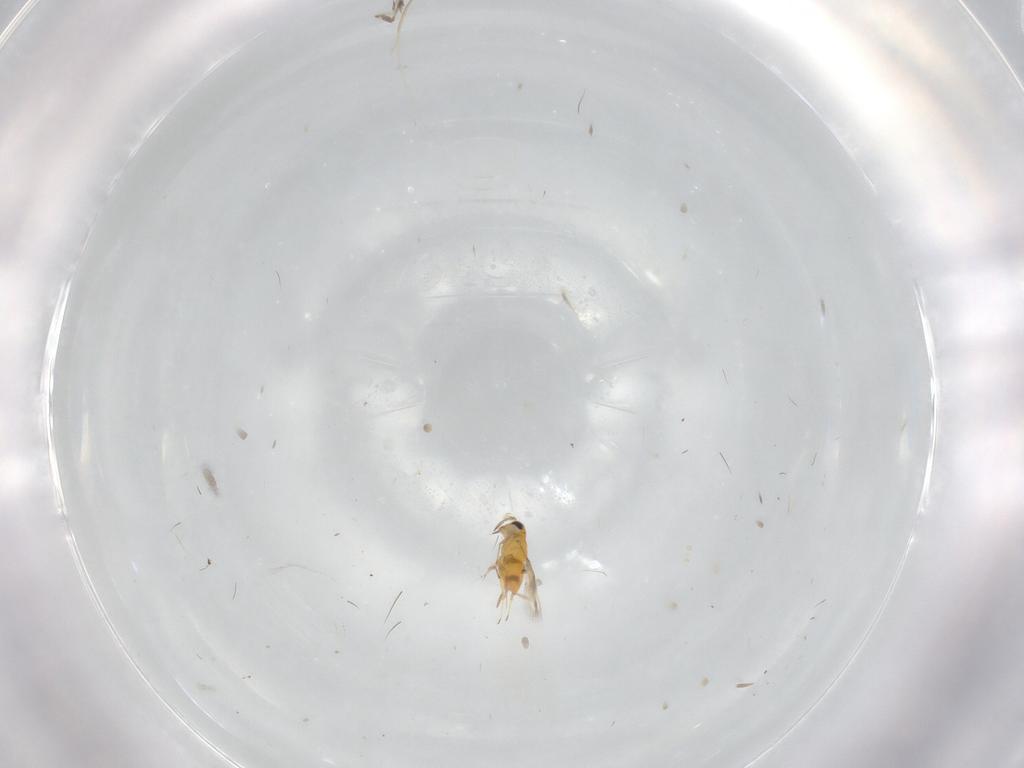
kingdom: Animalia
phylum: Arthropoda
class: Insecta
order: Hymenoptera
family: Aphelinidae
